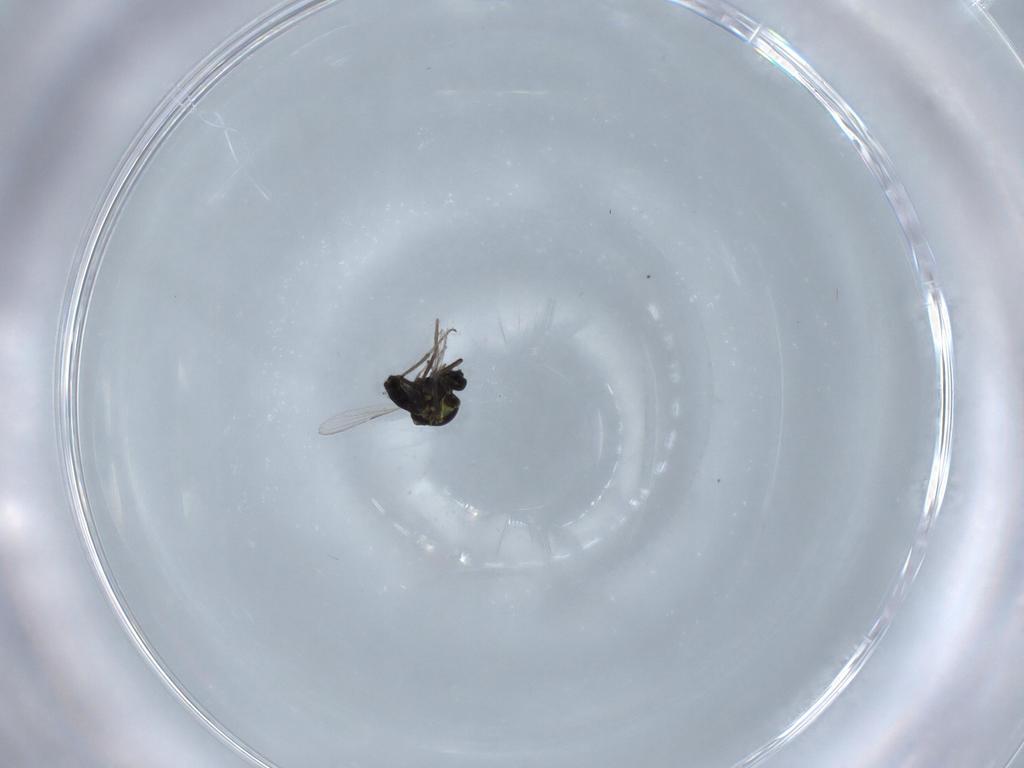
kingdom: Animalia
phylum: Arthropoda
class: Insecta
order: Diptera
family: Ceratopogonidae
